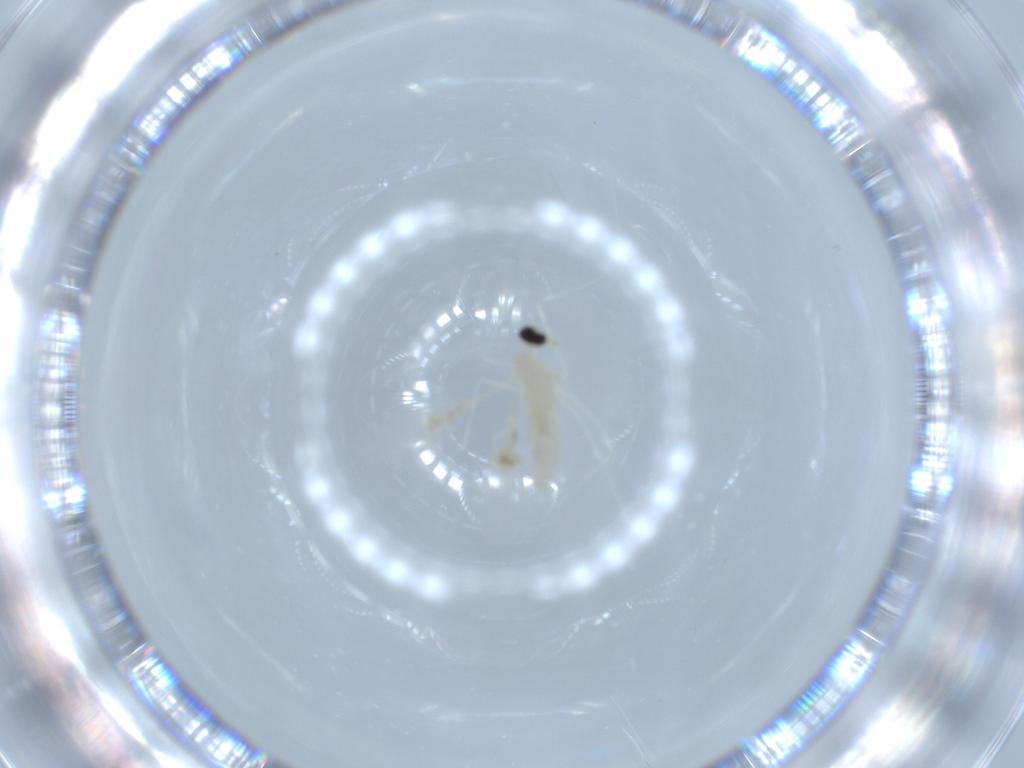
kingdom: Animalia
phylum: Arthropoda
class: Insecta
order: Diptera
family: Cecidomyiidae
